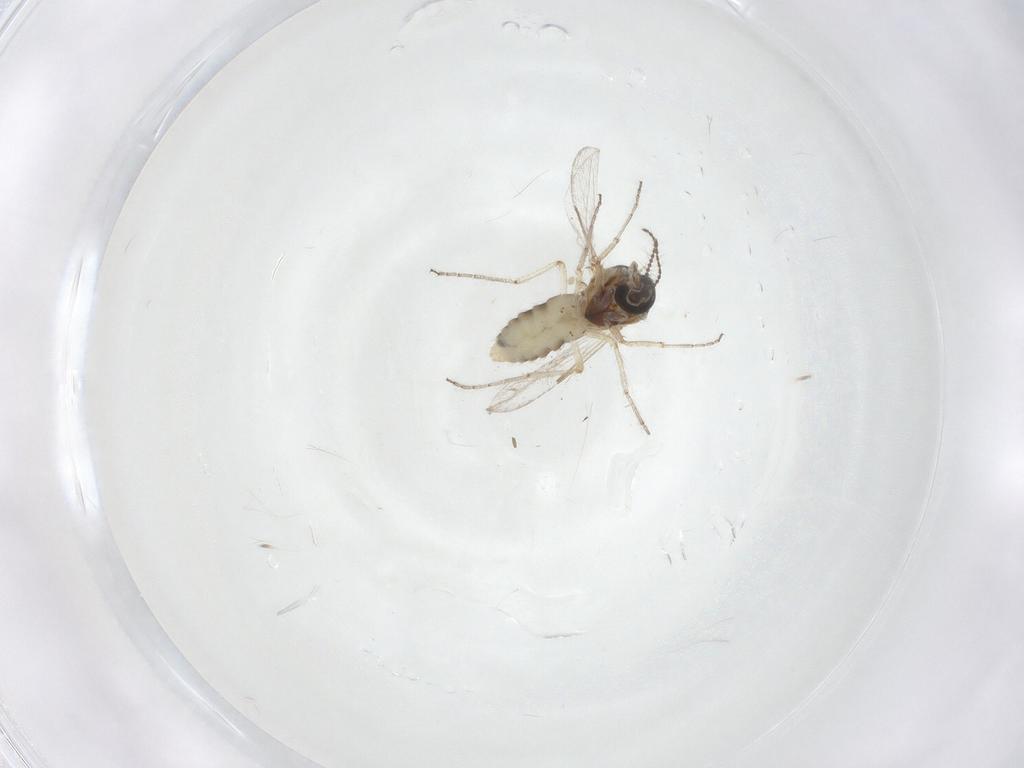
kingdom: Animalia
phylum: Arthropoda
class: Insecta
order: Diptera
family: Ceratopogonidae
